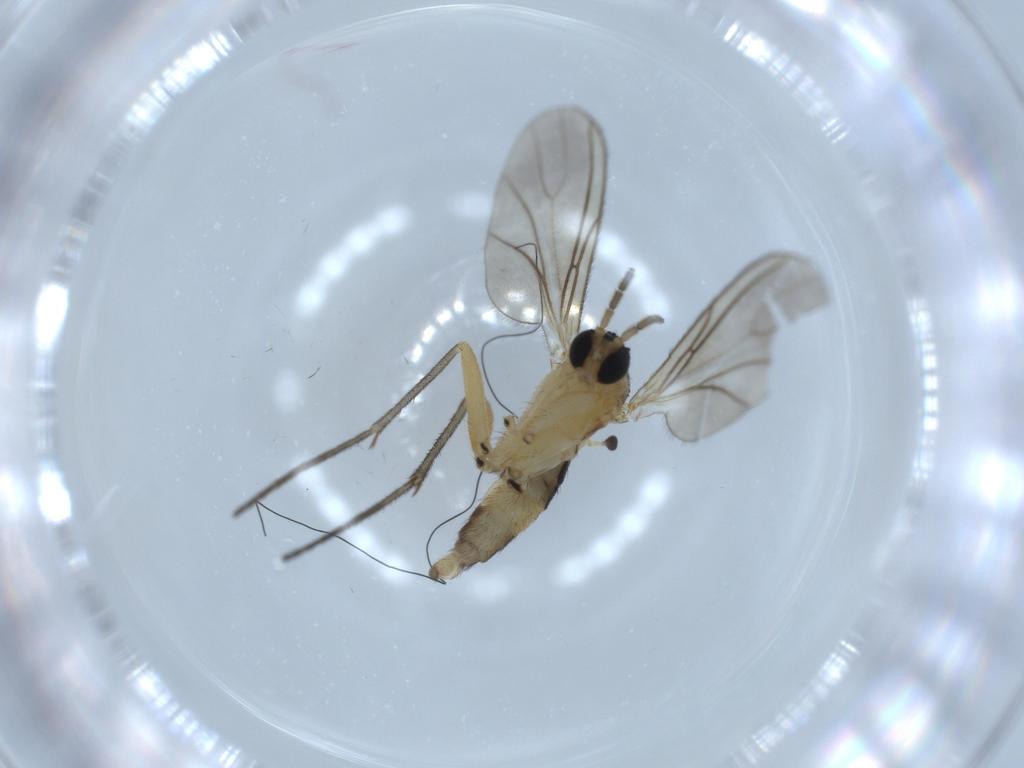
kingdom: Animalia
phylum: Arthropoda
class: Insecta
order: Diptera
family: Sciaridae
